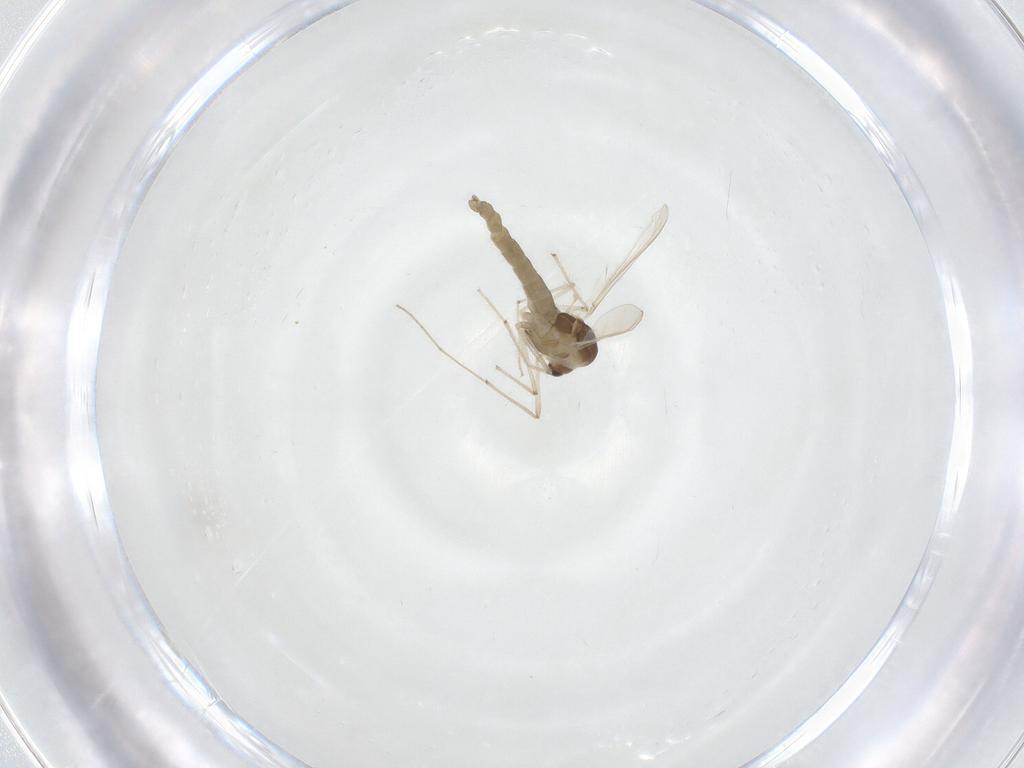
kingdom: Animalia
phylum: Arthropoda
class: Insecta
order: Diptera
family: Chironomidae
